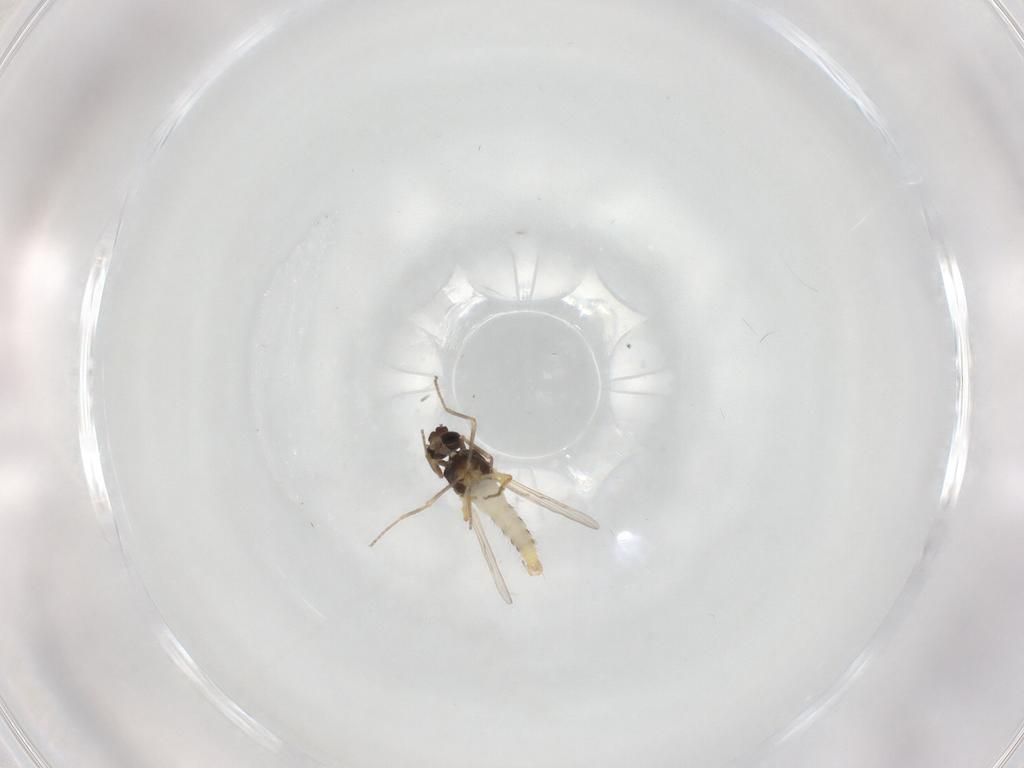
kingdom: Animalia
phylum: Arthropoda
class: Insecta
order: Diptera
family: Ceratopogonidae
